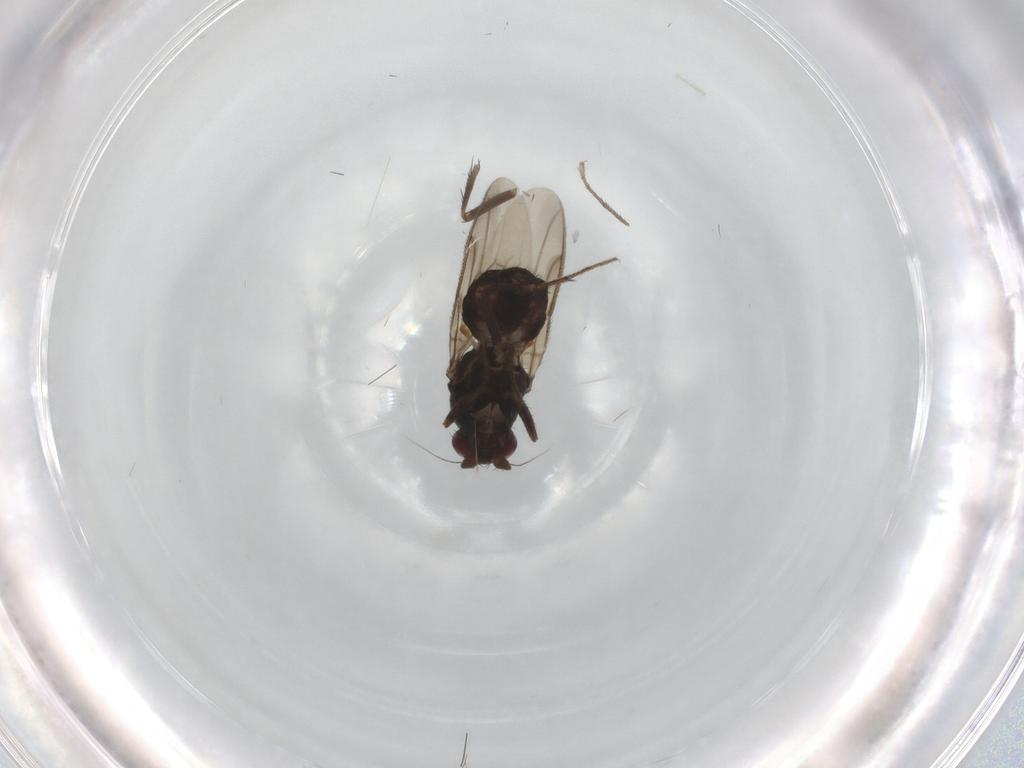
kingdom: Animalia
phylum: Arthropoda
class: Insecta
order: Diptera
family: Sphaeroceridae
